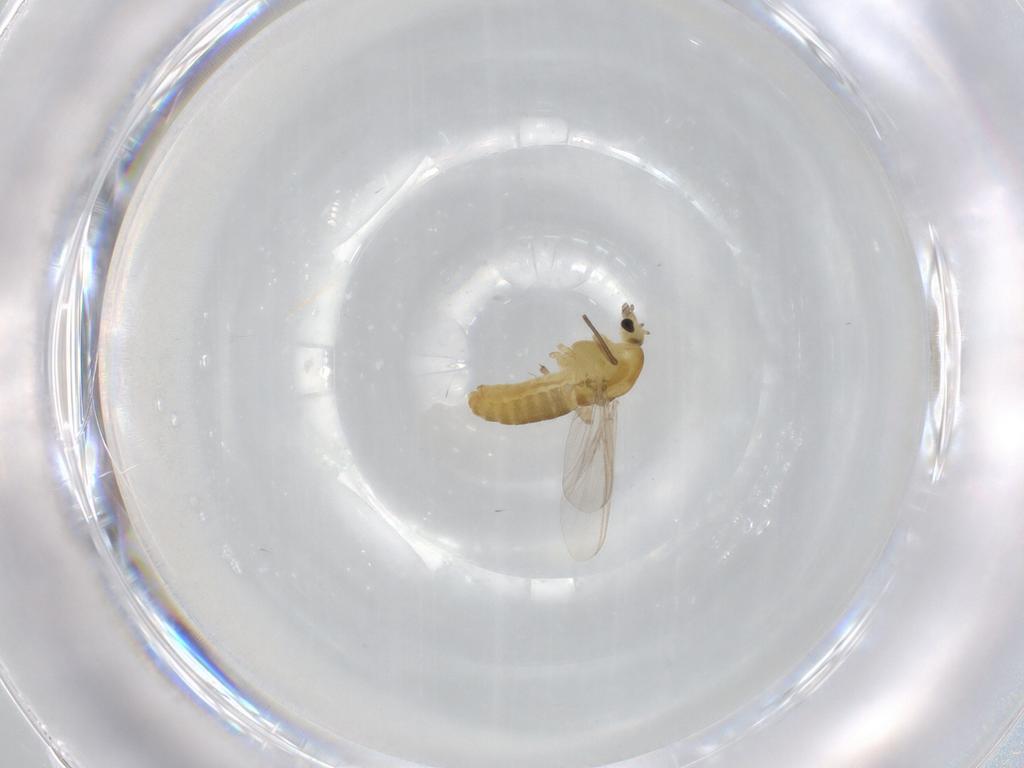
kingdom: Animalia
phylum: Arthropoda
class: Insecta
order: Diptera
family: Chironomidae
